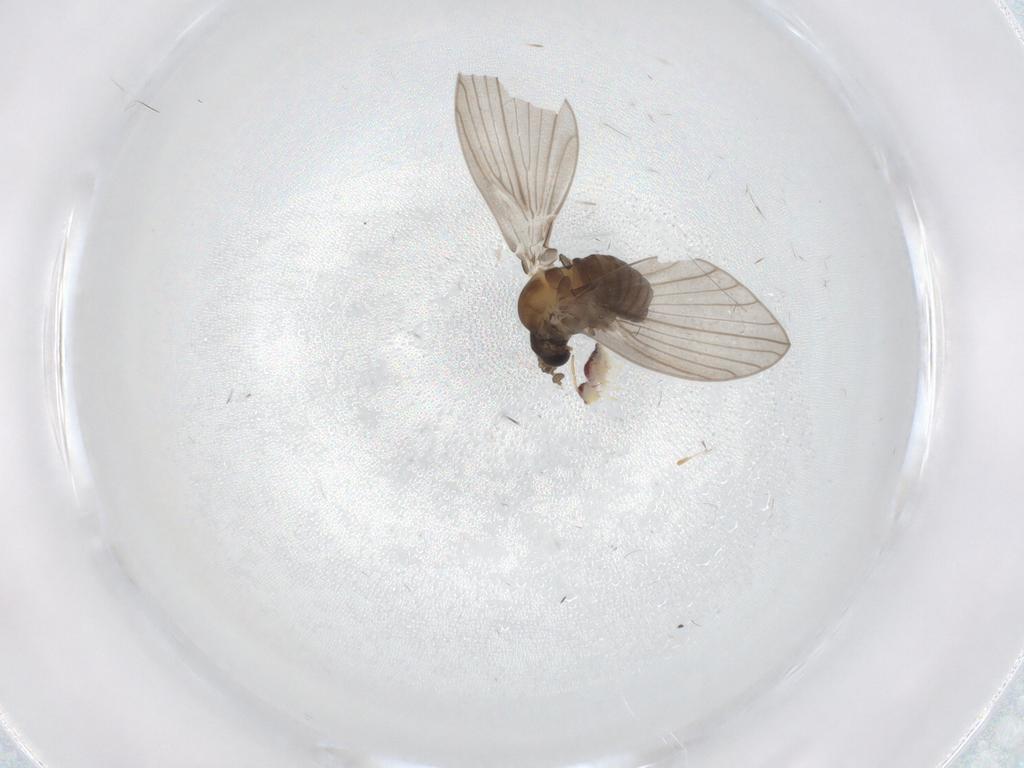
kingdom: Animalia
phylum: Arthropoda
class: Insecta
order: Diptera
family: Psychodidae
